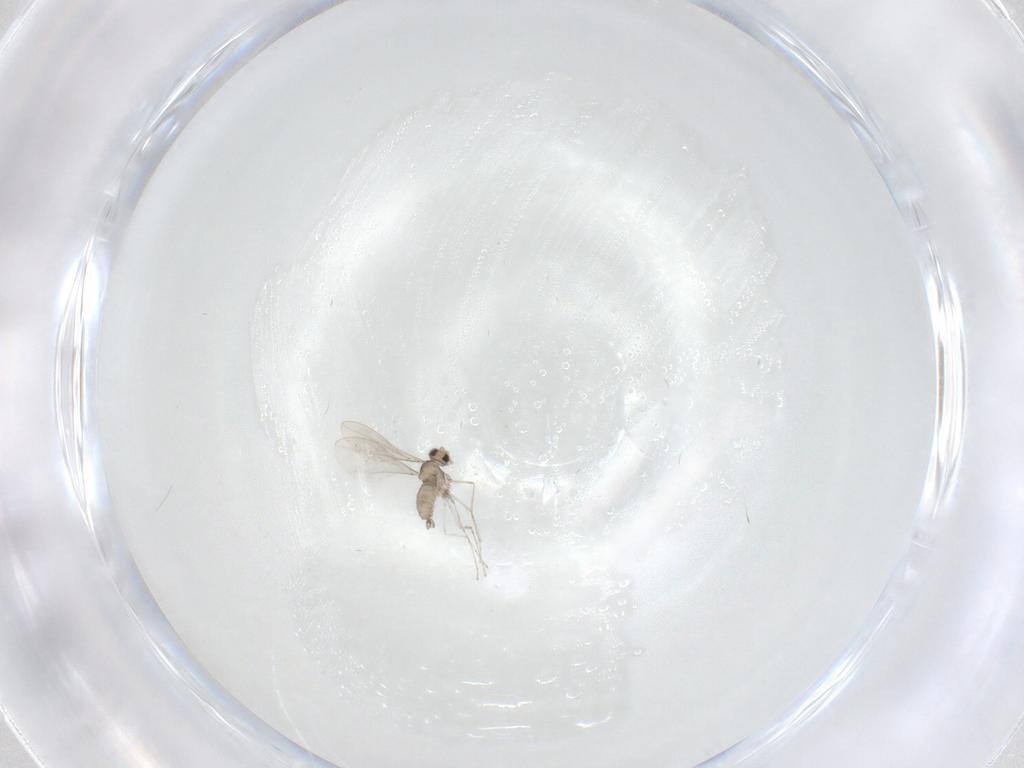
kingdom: Animalia
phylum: Arthropoda
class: Insecta
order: Diptera
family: Cecidomyiidae
